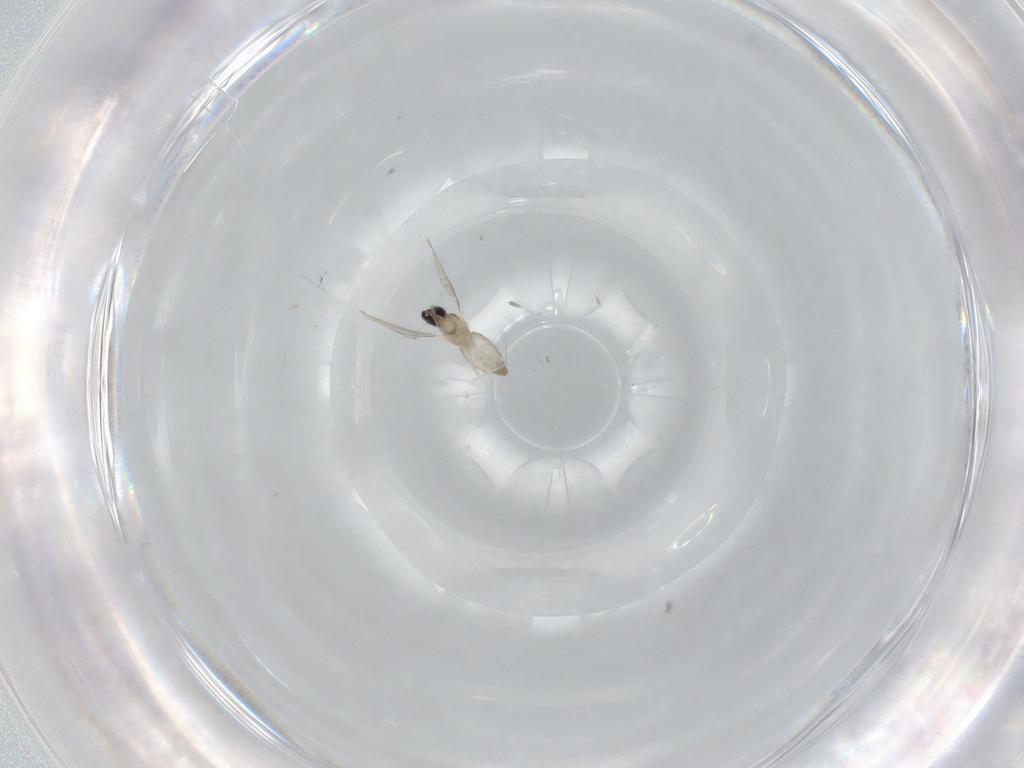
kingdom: Animalia
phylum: Arthropoda
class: Insecta
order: Diptera
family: Cecidomyiidae
